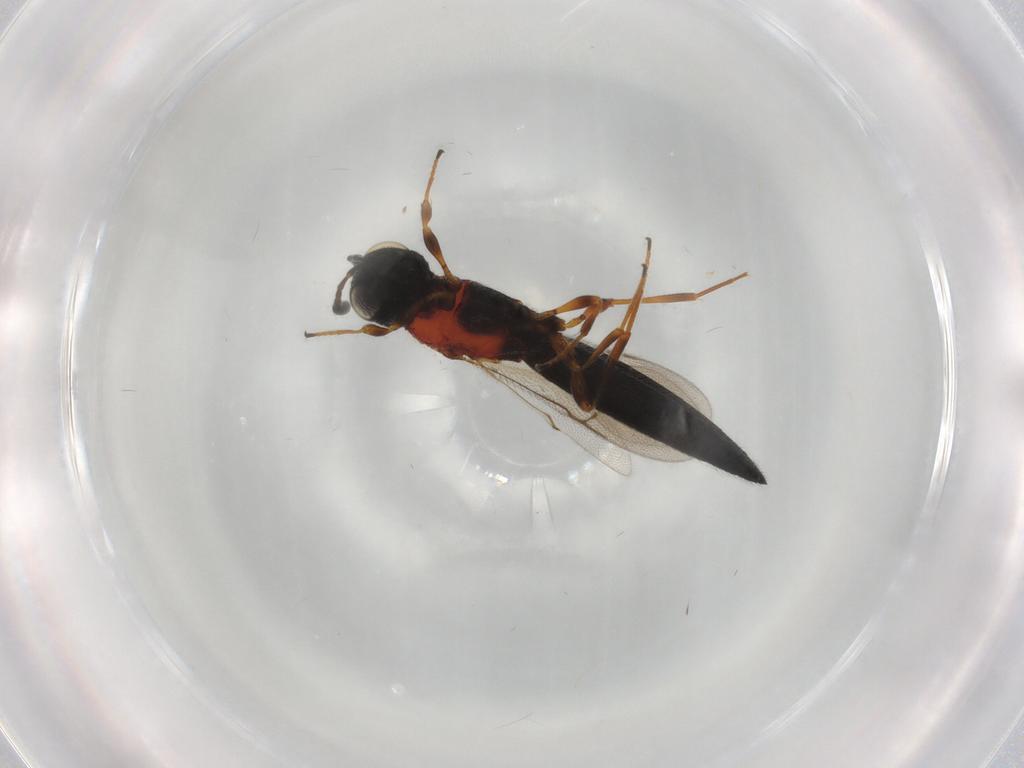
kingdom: Animalia
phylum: Arthropoda
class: Insecta
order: Hymenoptera
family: Scelionidae
